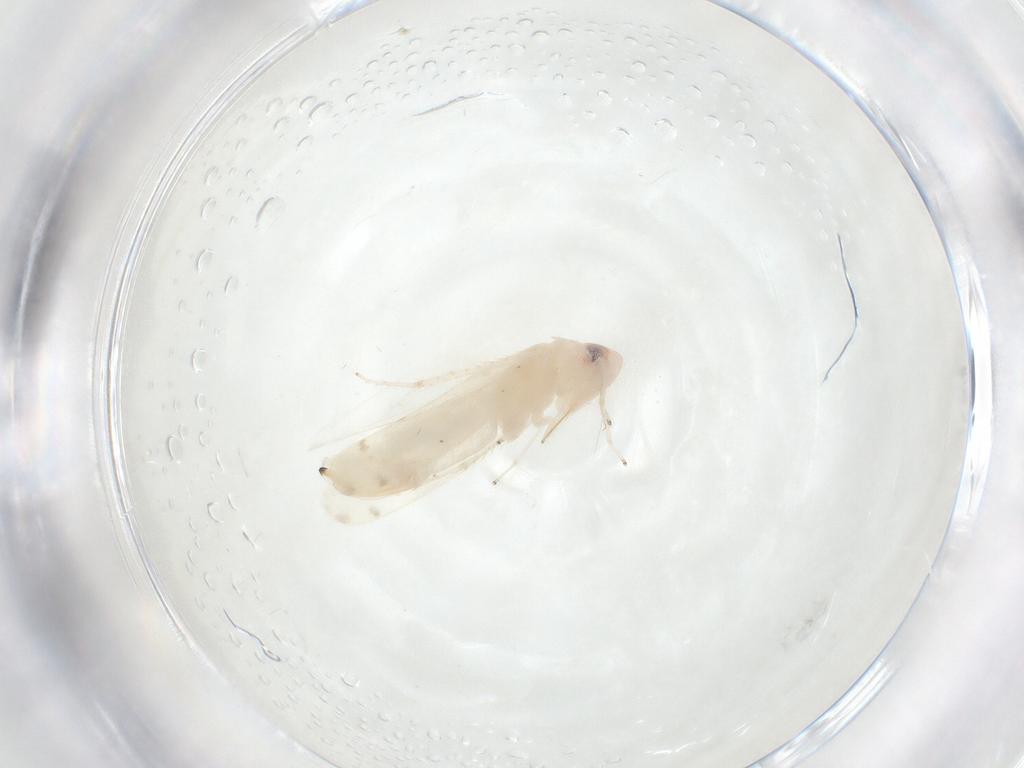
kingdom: Animalia
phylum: Arthropoda
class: Insecta
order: Hemiptera
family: Cicadellidae
